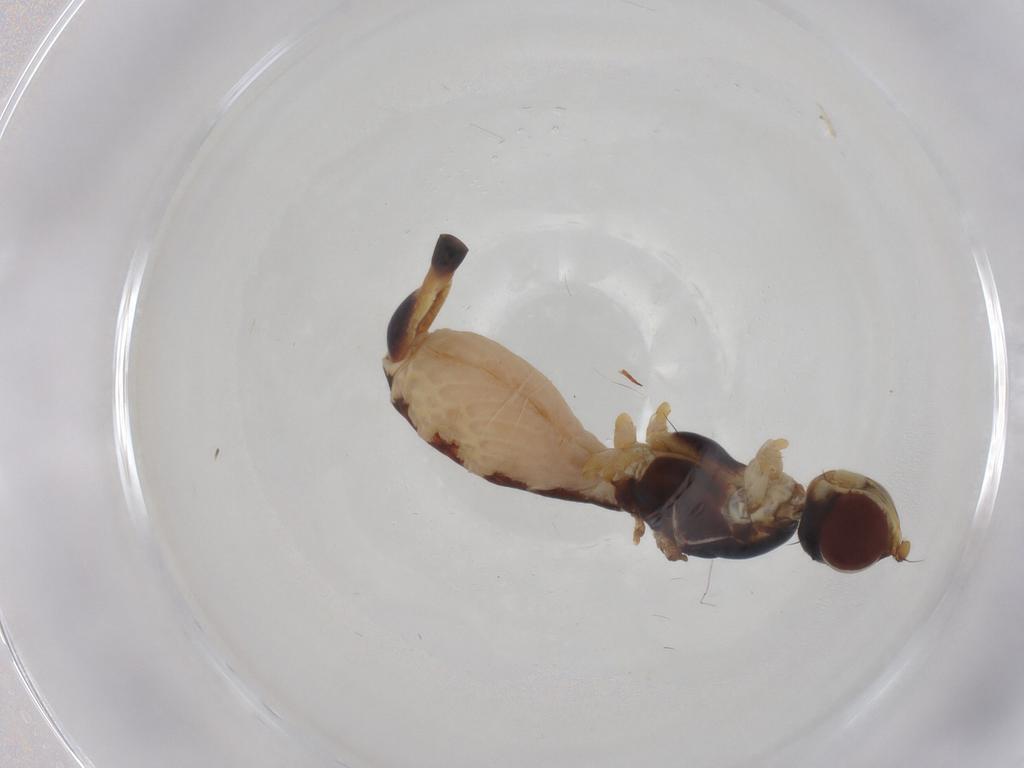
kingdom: Animalia
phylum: Arthropoda
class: Insecta
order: Diptera
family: Micropezidae
